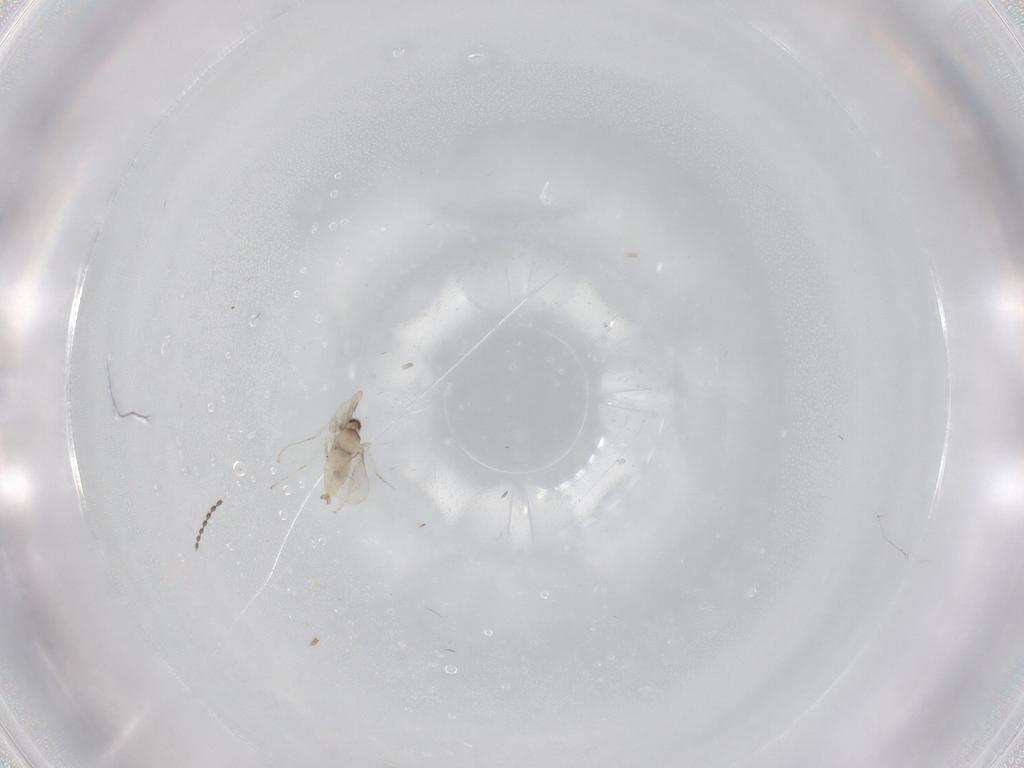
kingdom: Animalia
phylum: Arthropoda
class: Insecta
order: Diptera
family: Cecidomyiidae
